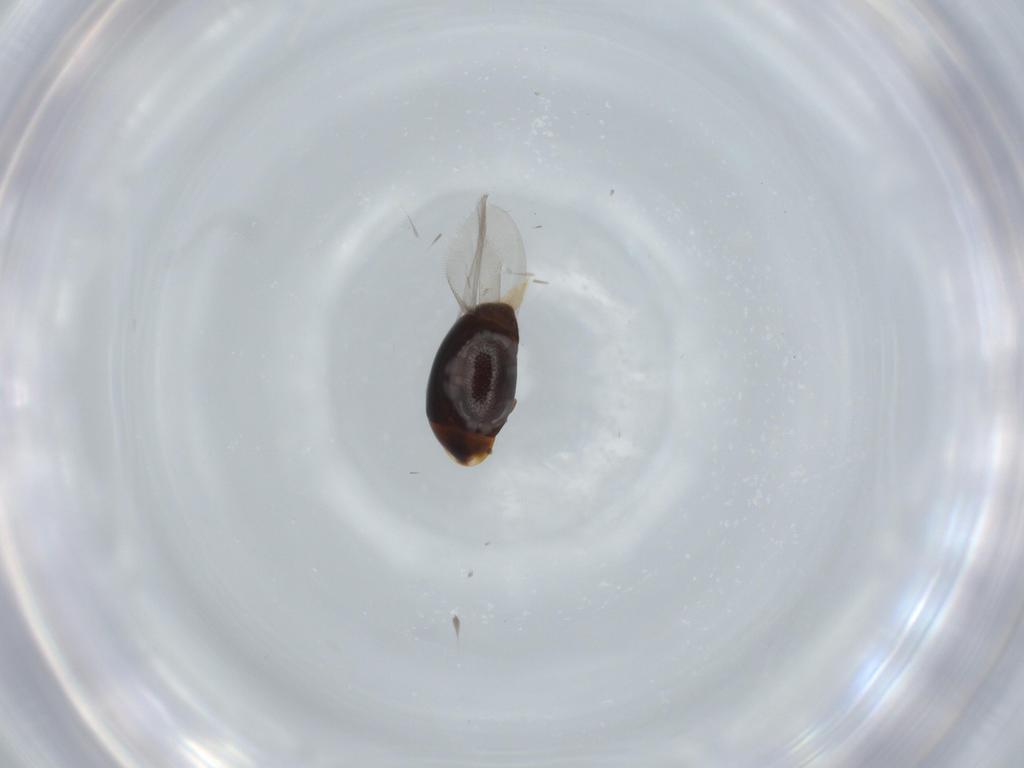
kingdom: Animalia
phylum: Arthropoda
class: Insecta
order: Coleoptera
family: Corylophidae
